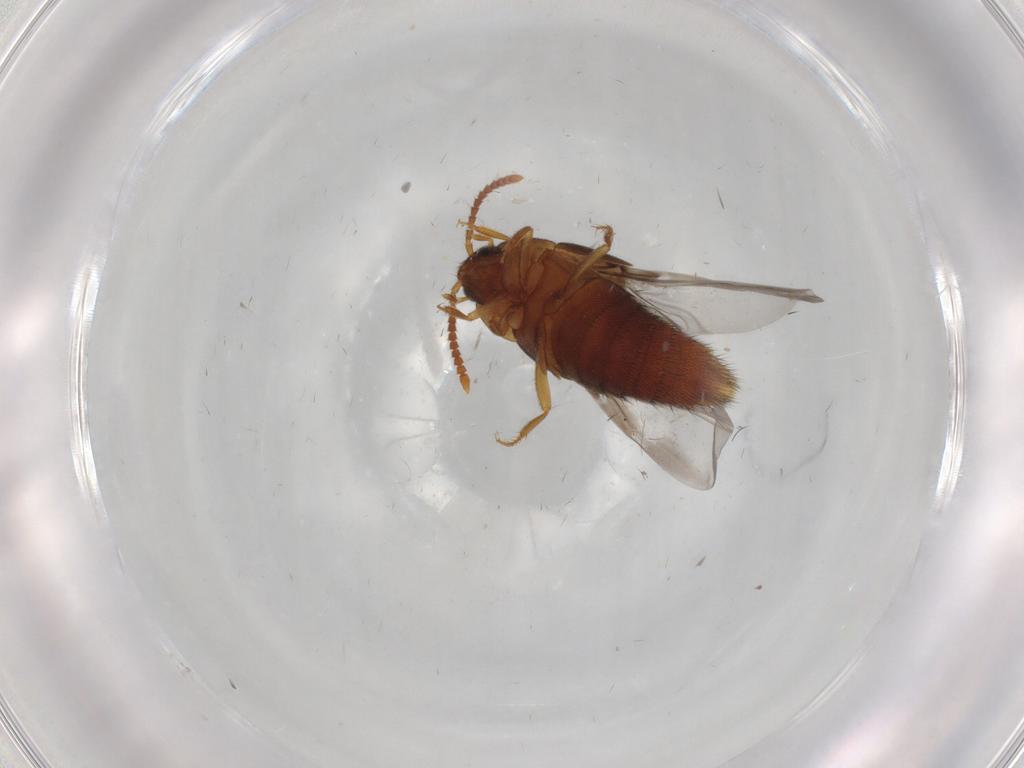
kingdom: Animalia
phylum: Arthropoda
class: Insecta
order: Coleoptera
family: Staphylinidae
